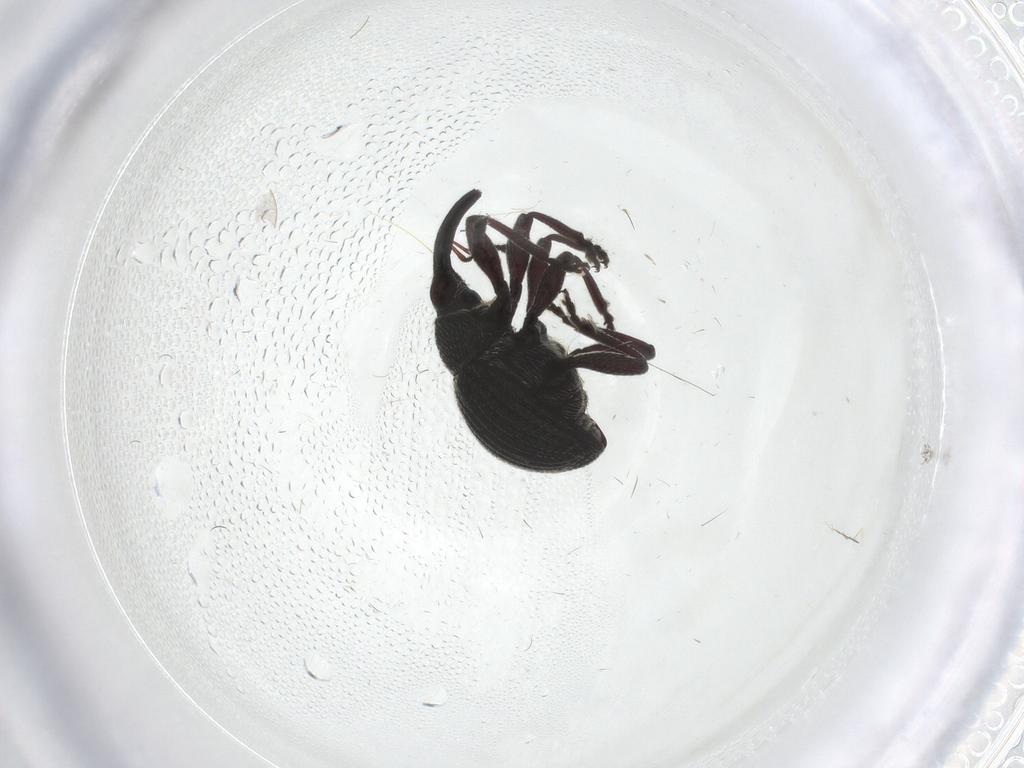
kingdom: Animalia
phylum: Arthropoda
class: Insecta
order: Coleoptera
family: Brentidae
